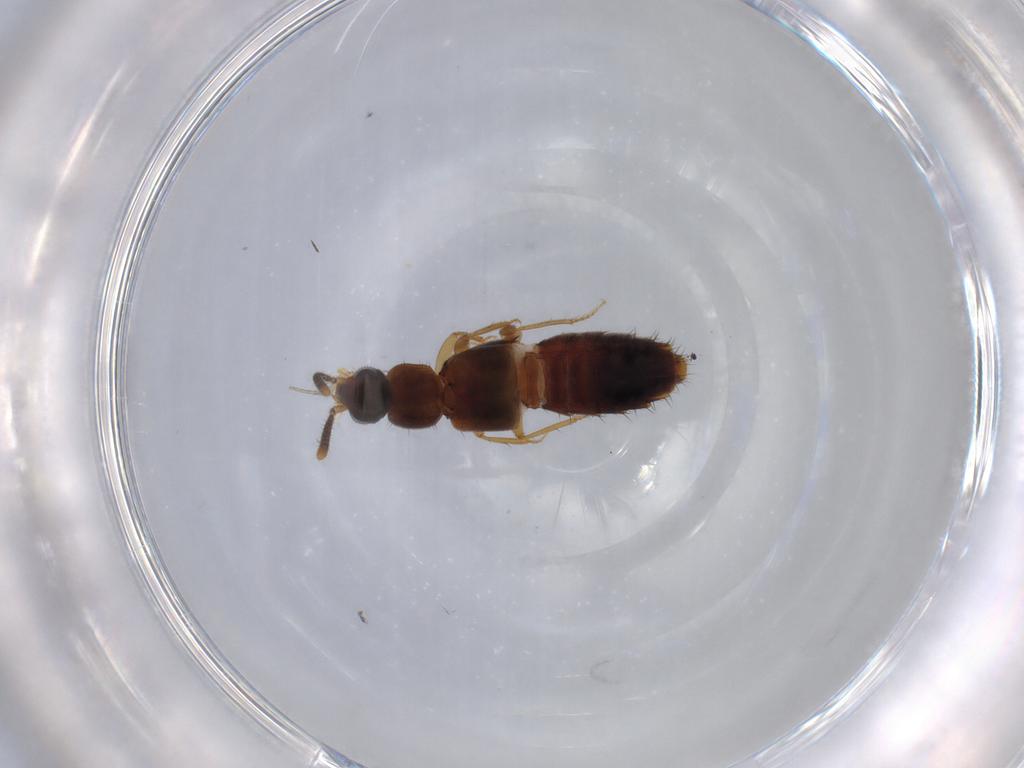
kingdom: Animalia
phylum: Arthropoda
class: Insecta
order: Coleoptera
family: Staphylinidae
